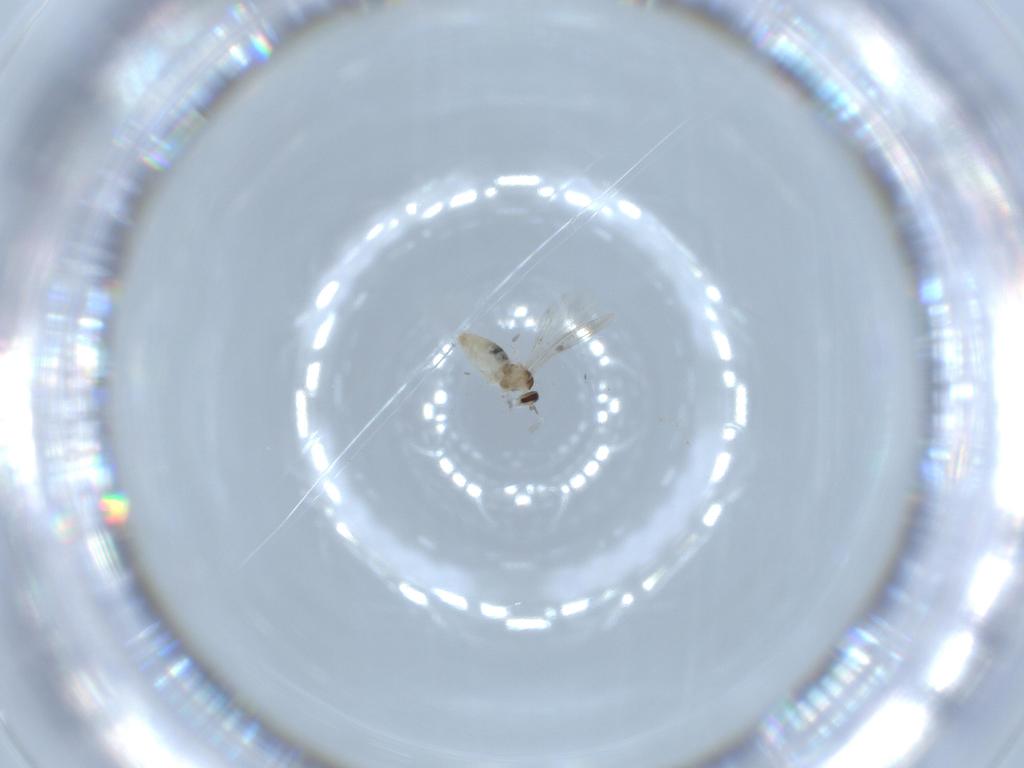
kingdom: Animalia
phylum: Arthropoda
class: Insecta
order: Diptera
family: Cecidomyiidae
